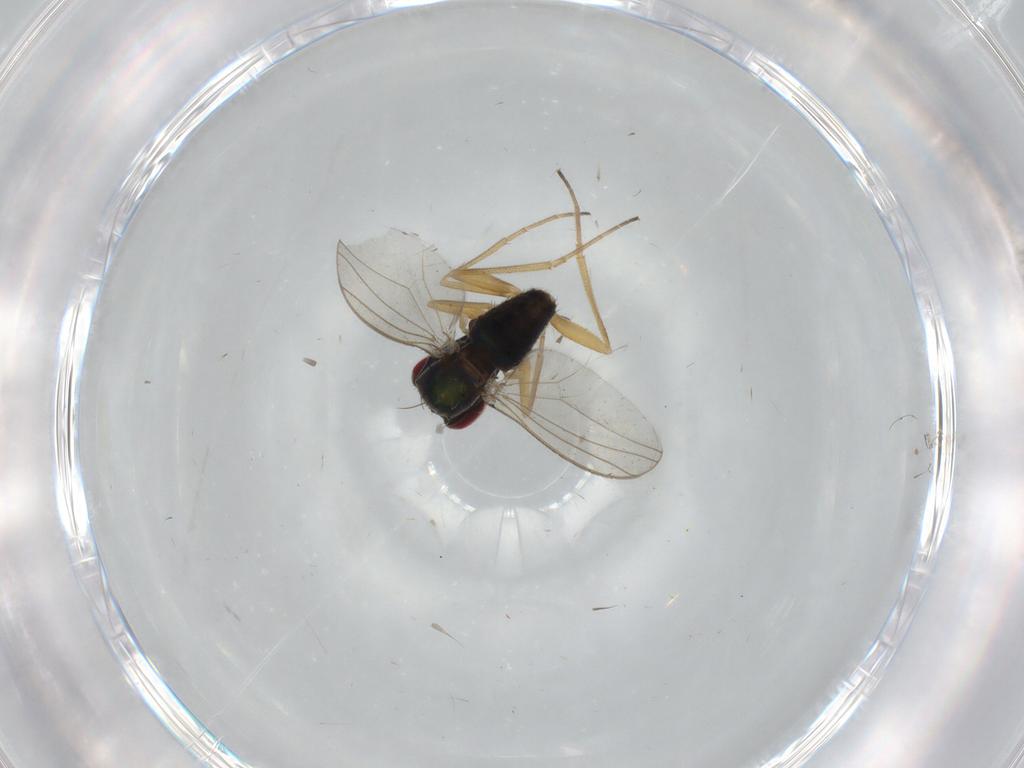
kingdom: Animalia
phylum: Arthropoda
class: Insecta
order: Diptera
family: Dolichopodidae
